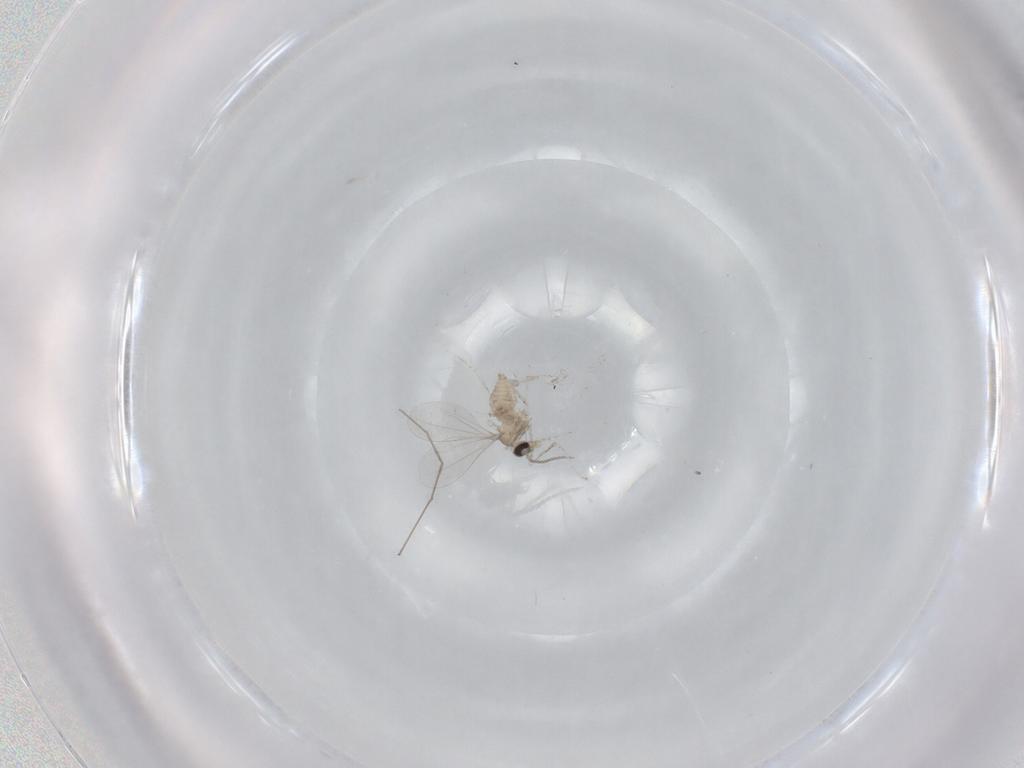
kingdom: Animalia
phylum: Arthropoda
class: Insecta
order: Diptera
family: Chironomidae
